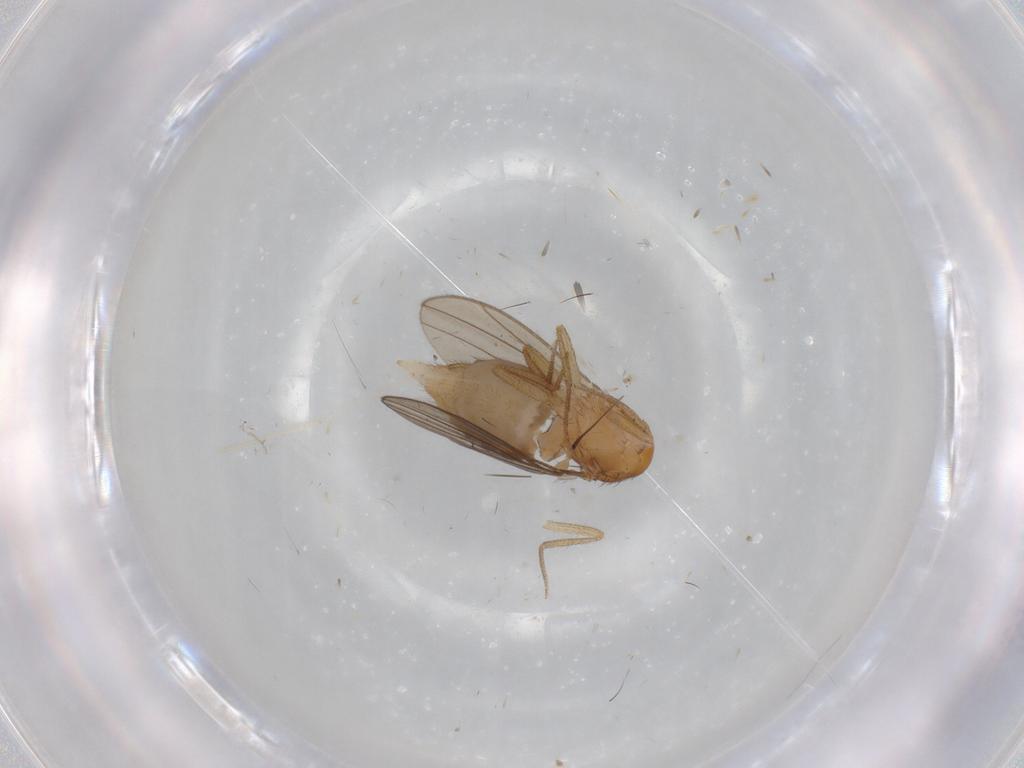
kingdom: Animalia
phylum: Arthropoda
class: Insecta
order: Diptera
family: Drosophilidae
